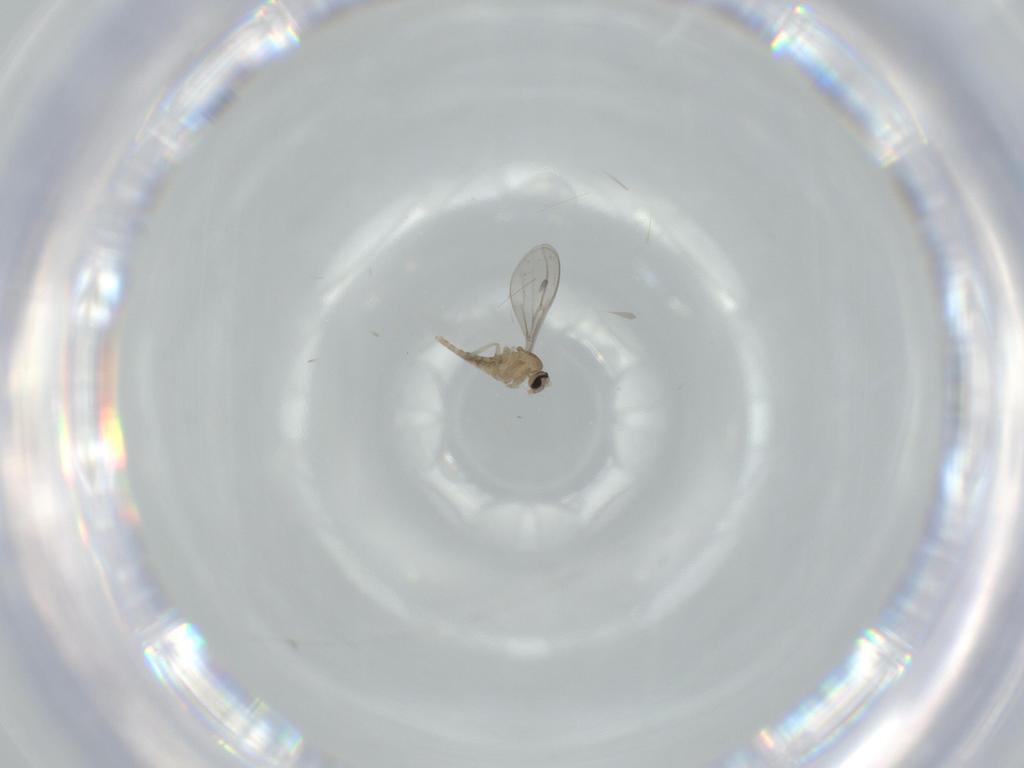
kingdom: Animalia
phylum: Arthropoda
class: Insecta
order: Diptera
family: Cecidomyiidae
